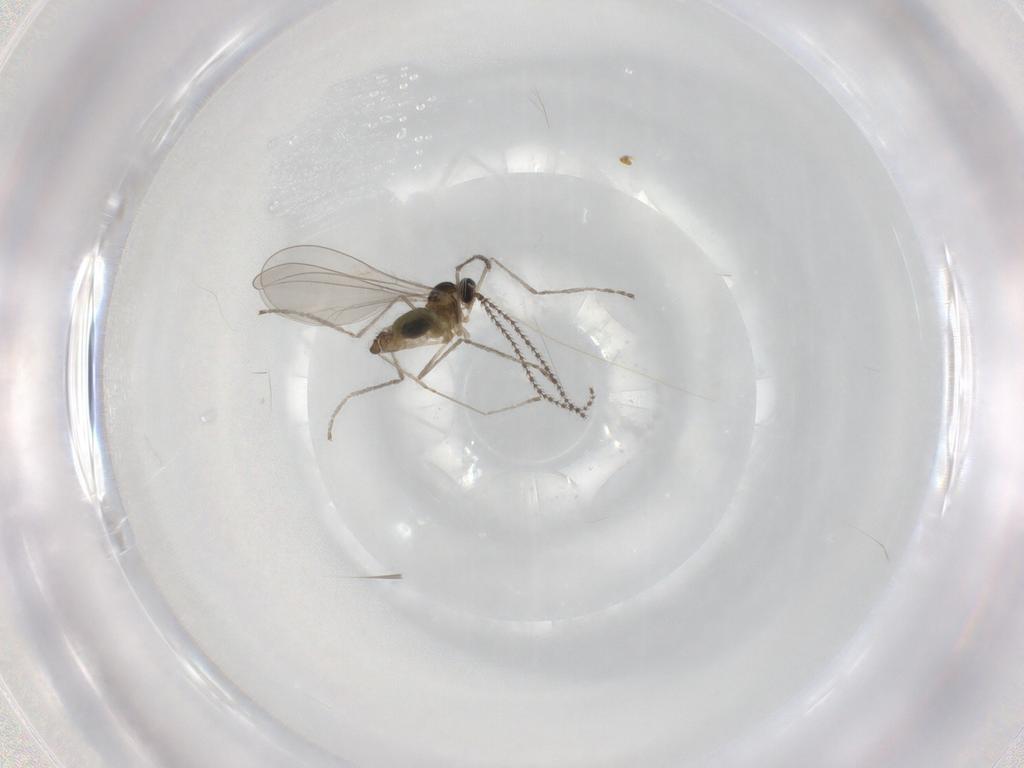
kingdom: Animalia
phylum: Arthropoda
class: Insecta
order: Diptera
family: Cecidomyiidae
